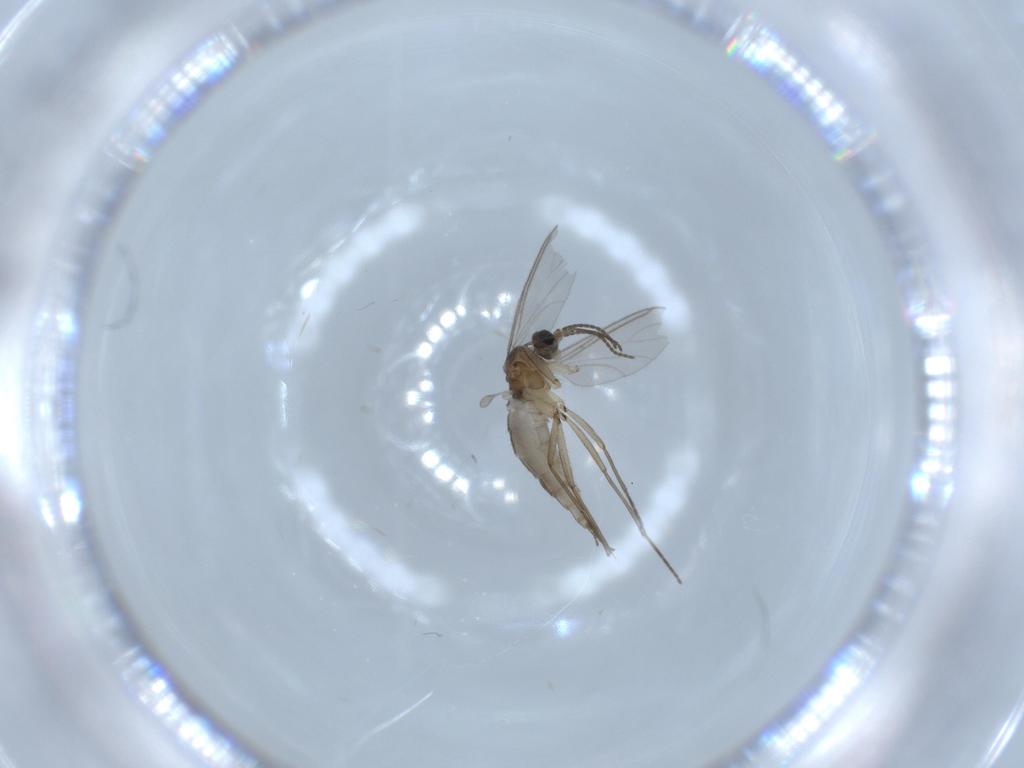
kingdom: Animalia
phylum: Arthropoda
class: Insecta
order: Diptera
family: Sciaridae
